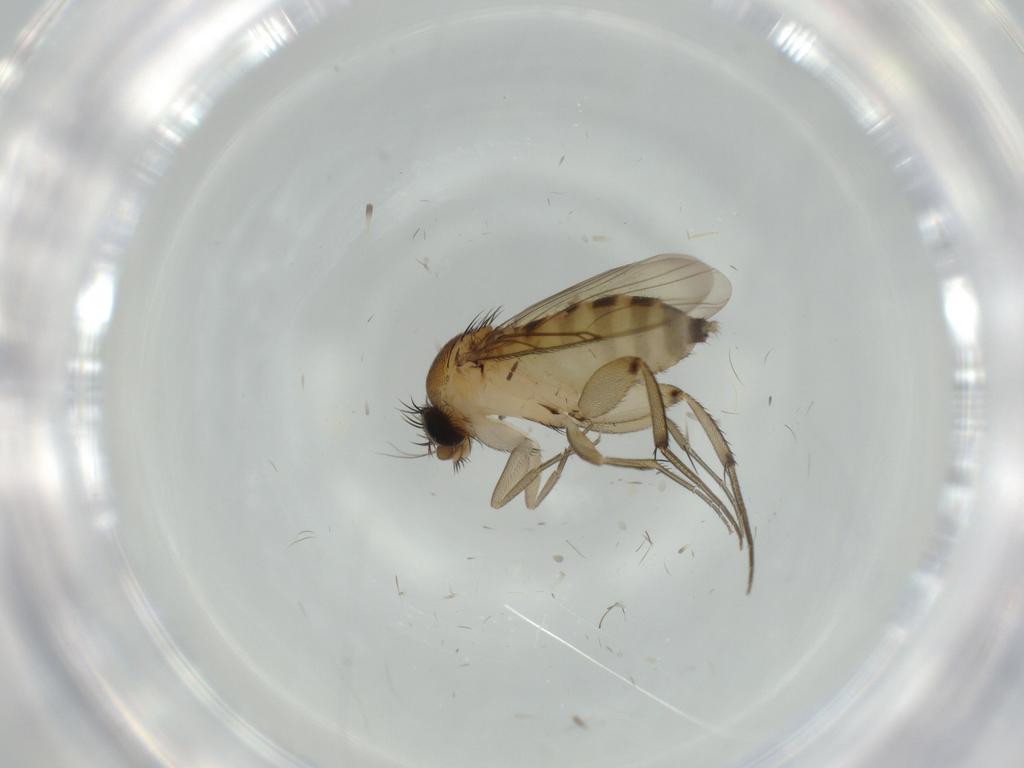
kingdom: Animalia
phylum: Arthropoda
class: Insecta
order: Diptera
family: Phoridae
